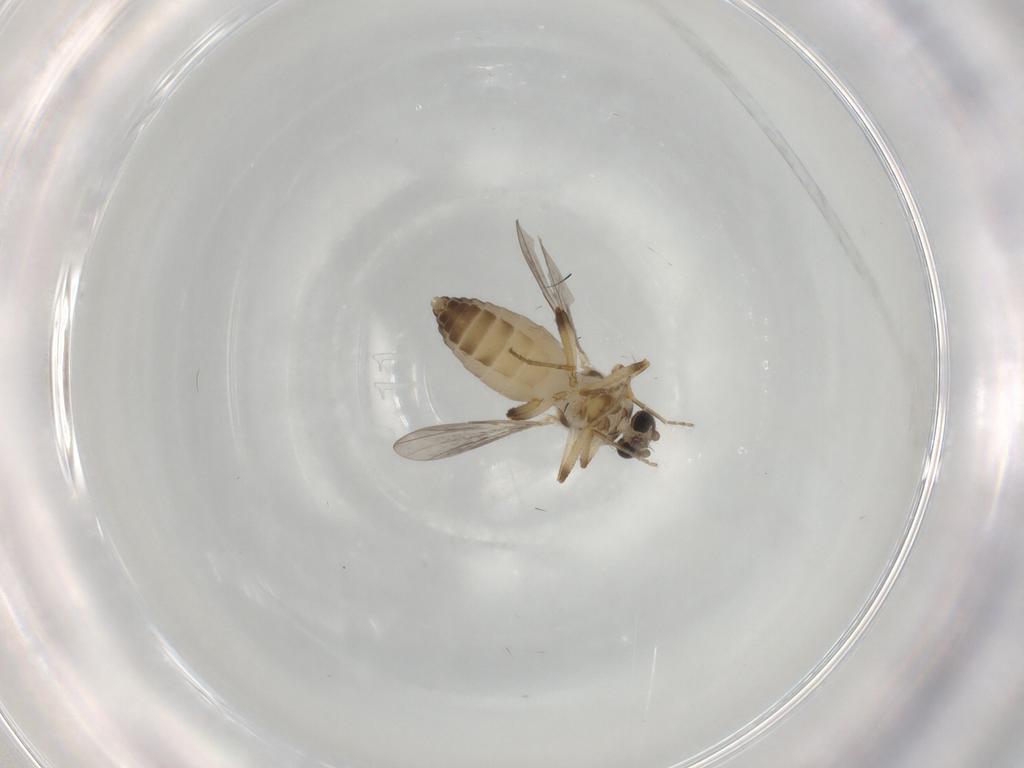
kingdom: Animalia
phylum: Arthropoda
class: Insecta
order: Diptera
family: Ceratopogonidae
